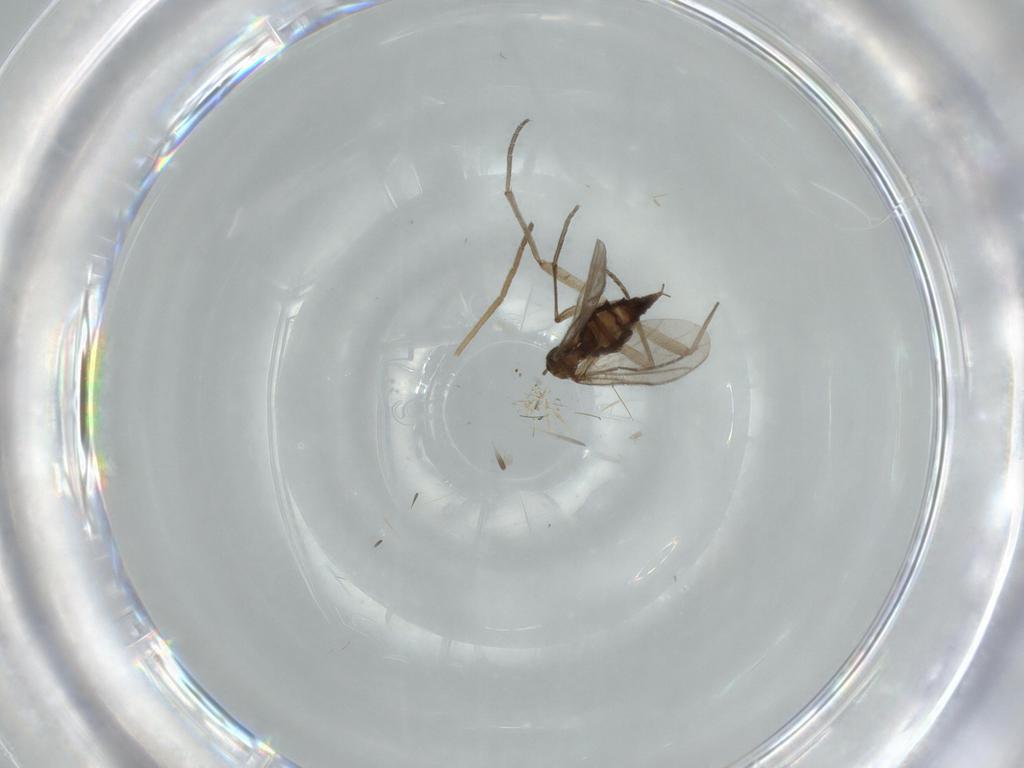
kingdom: Animalia
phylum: Arthropoda
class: Insecta
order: Diptera
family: Sciaridae
